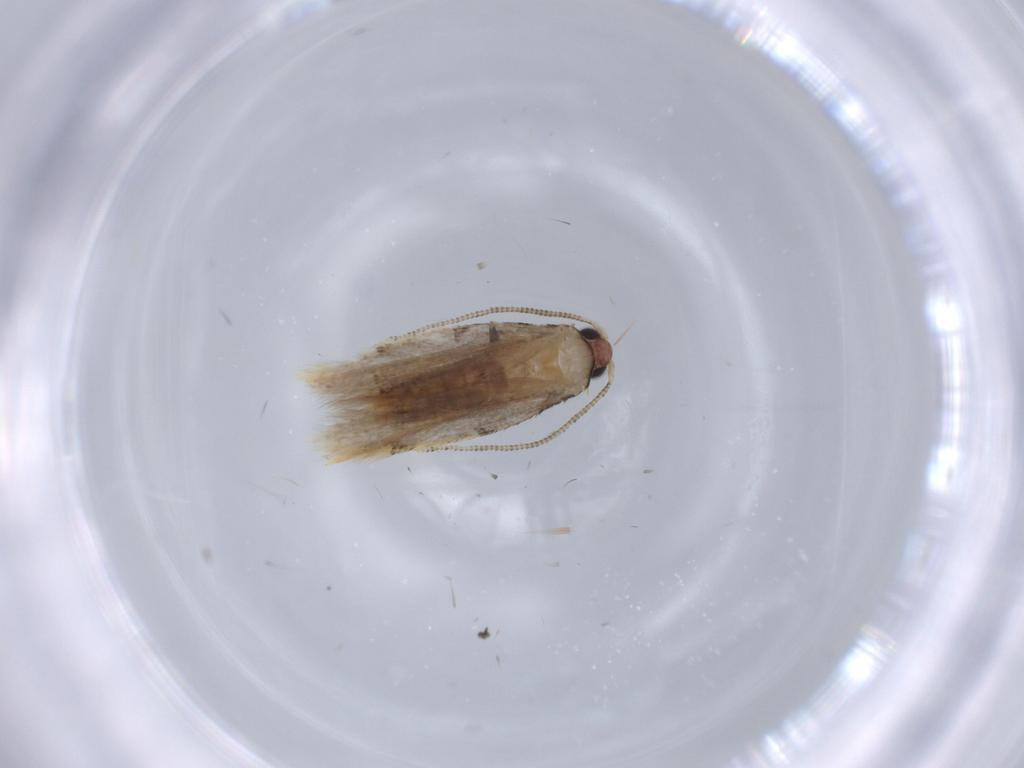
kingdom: Animalia
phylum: Arthropoda
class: Insecta
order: Lepidoptera
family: Tineidae
